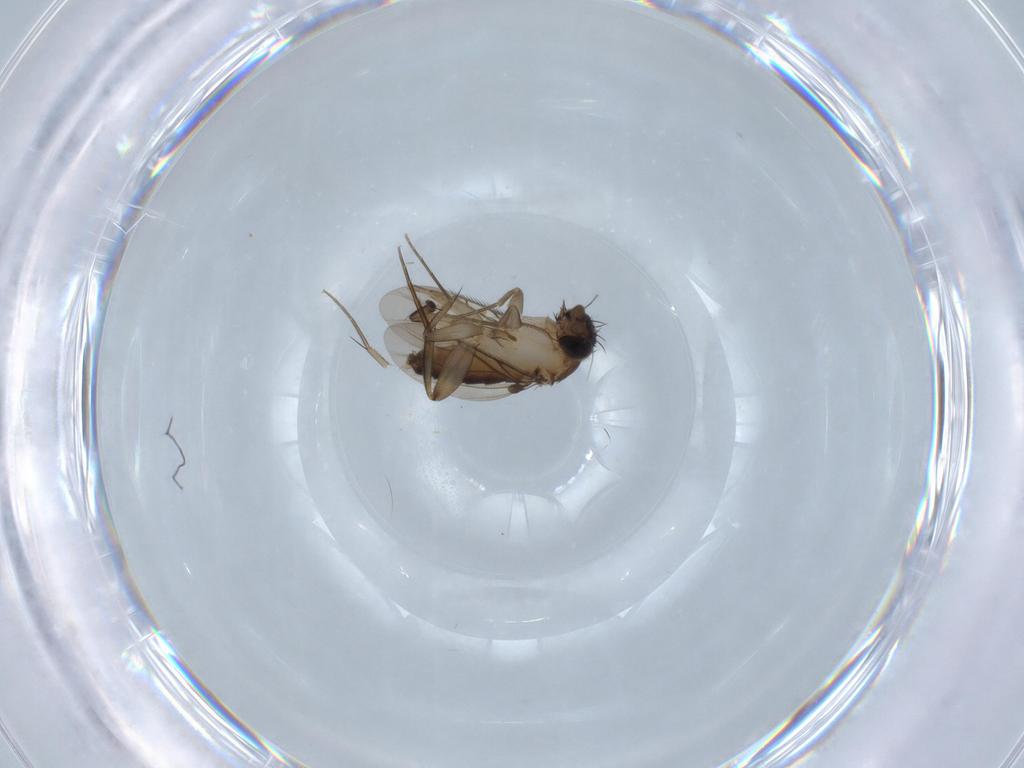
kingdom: Animalia
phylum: Arthropoda
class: Insecta
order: Diptera
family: Phoridae
